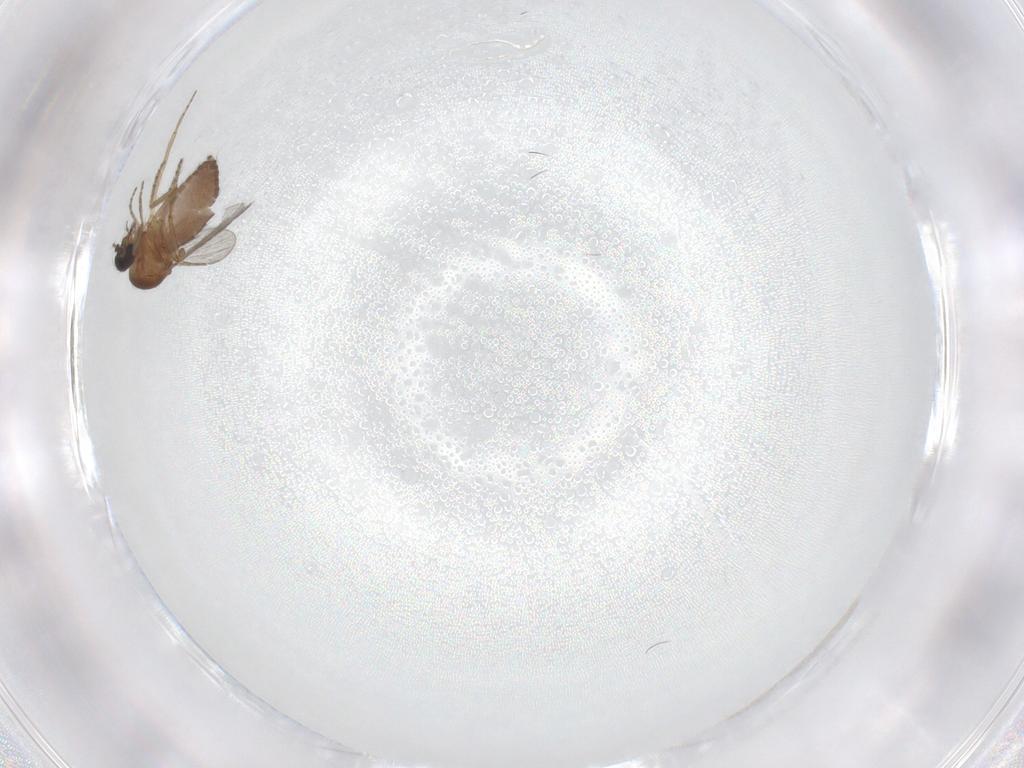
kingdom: Animalia
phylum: Arthropoda
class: Insecta
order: Diptera
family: Ceratopogonidae
